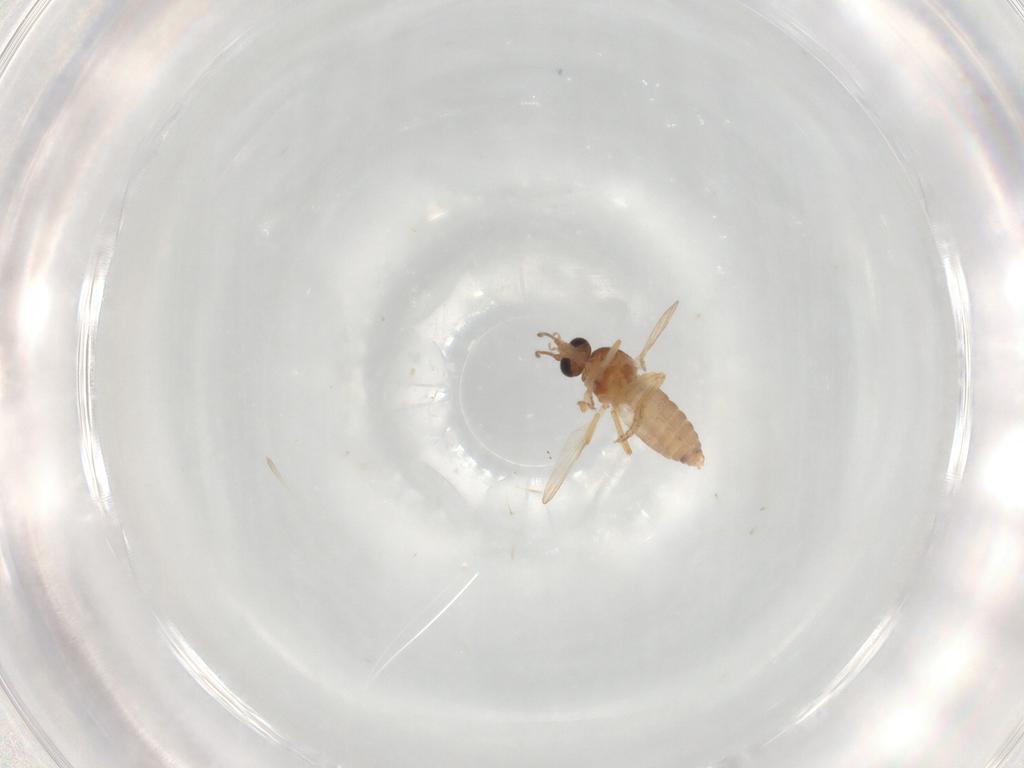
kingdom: Animalia
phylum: Arthropoda
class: Insecta
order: Diptera
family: Ceratopogonidae
